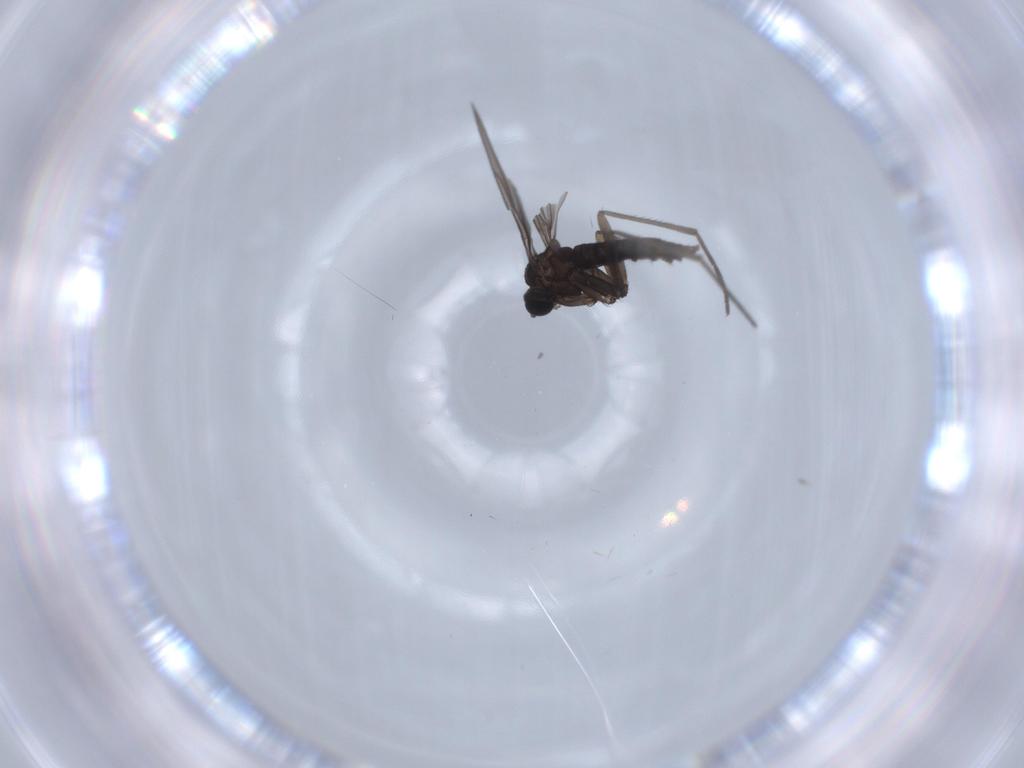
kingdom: Animalia
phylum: Arthropoda
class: Insecta
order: Diptera
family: Sciaridae
